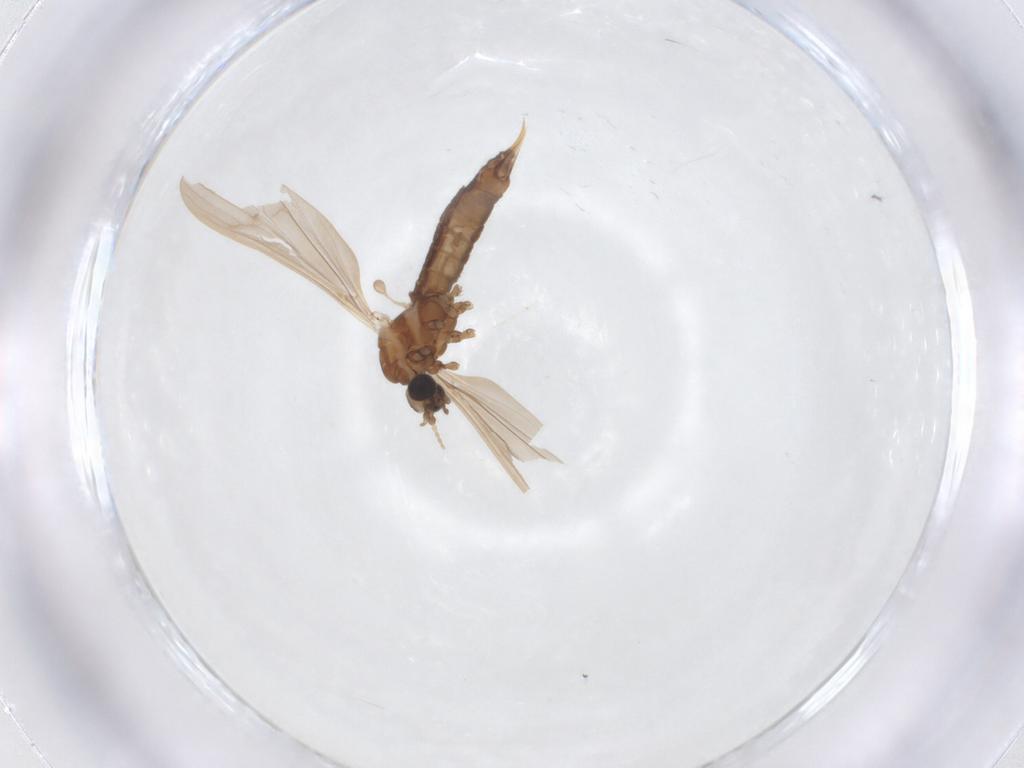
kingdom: Animalia
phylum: Arthropoda
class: Insecta
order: Diptera
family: Limoniidae
